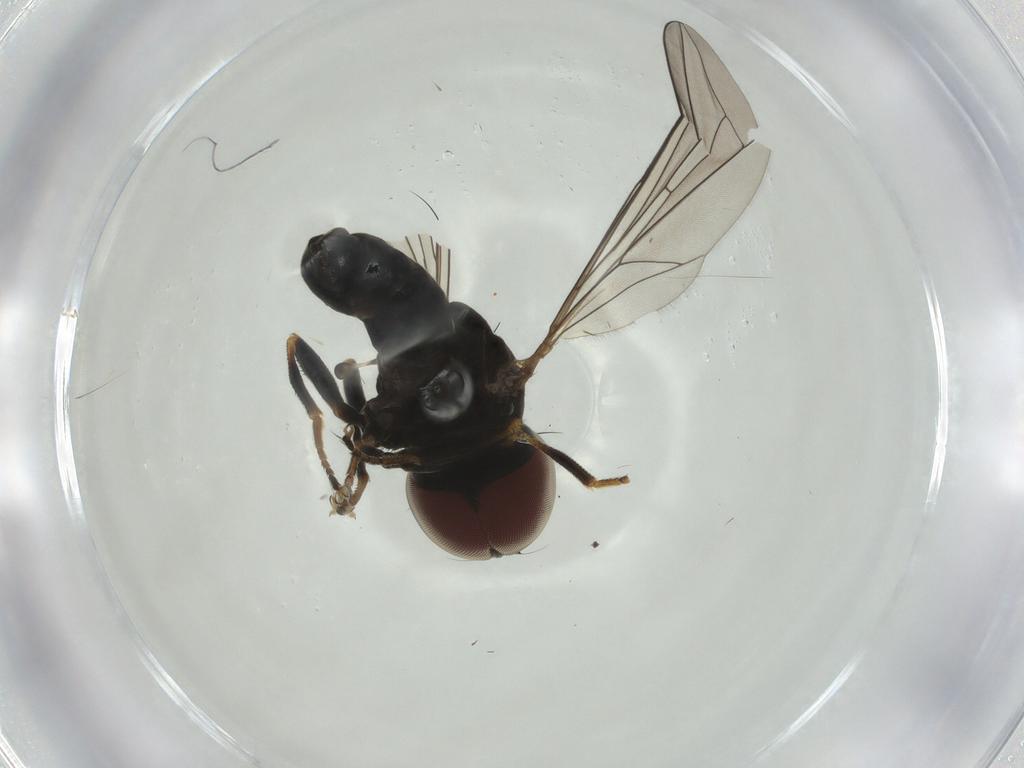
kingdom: Animalia
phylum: Arthropoda
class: Insecta
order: Diptera
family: Pipunculidae
